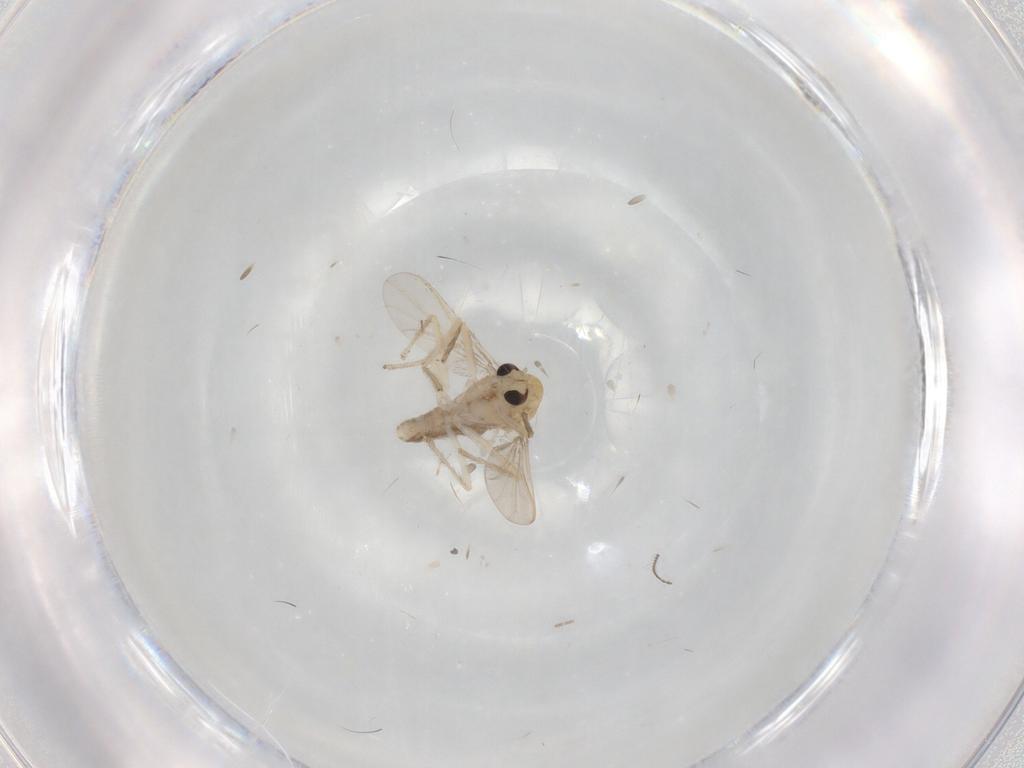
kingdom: Animalia
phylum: Arthropoda
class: Insecta
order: Diptera
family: Chironomidae
